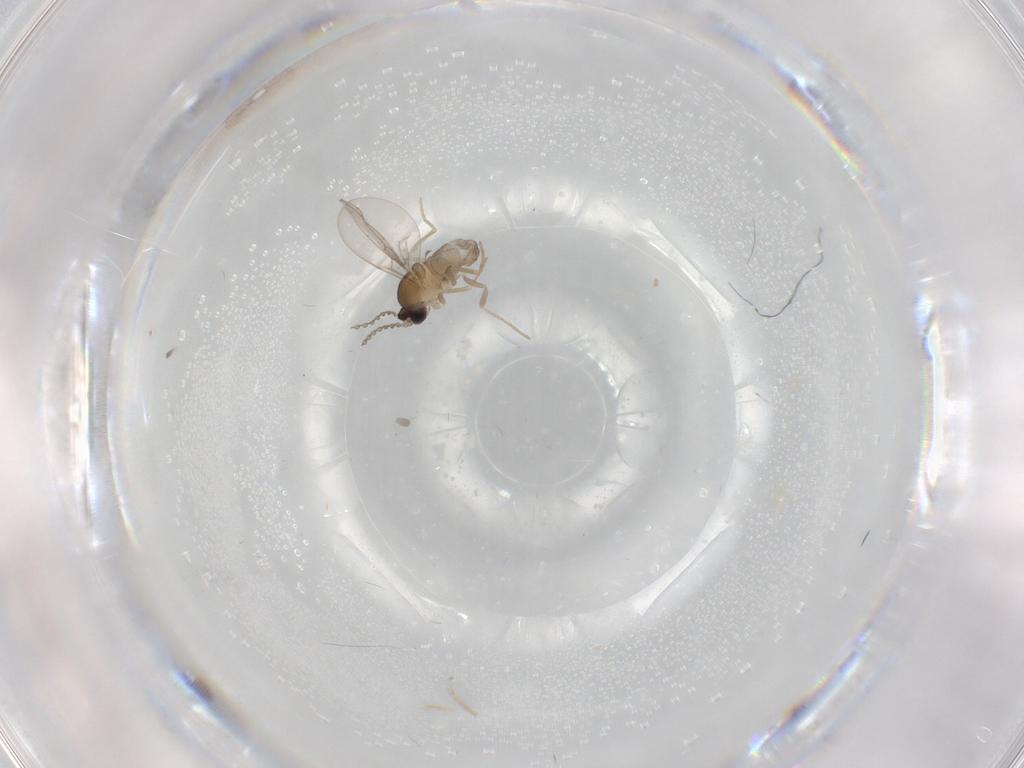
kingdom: Animalia
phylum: Arthropoda
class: Insecta
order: Diptera
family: Cecidomyiidae
